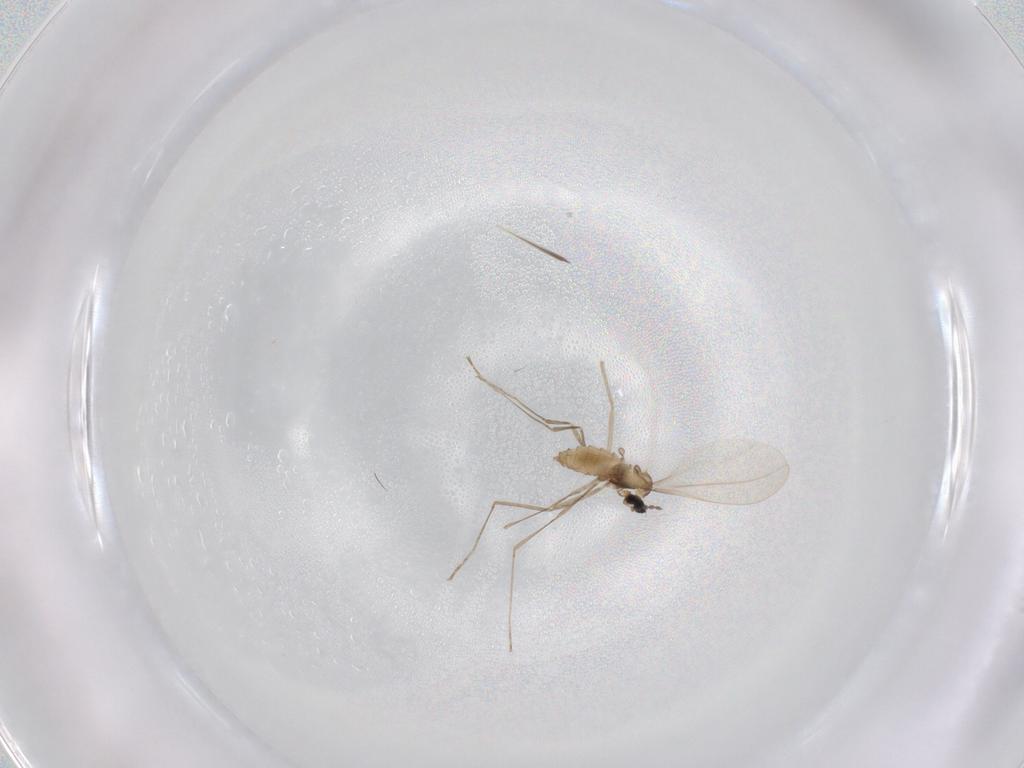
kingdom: Animalia
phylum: Arthropoda
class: Insecta
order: Diptera
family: Cecidomyiidae
